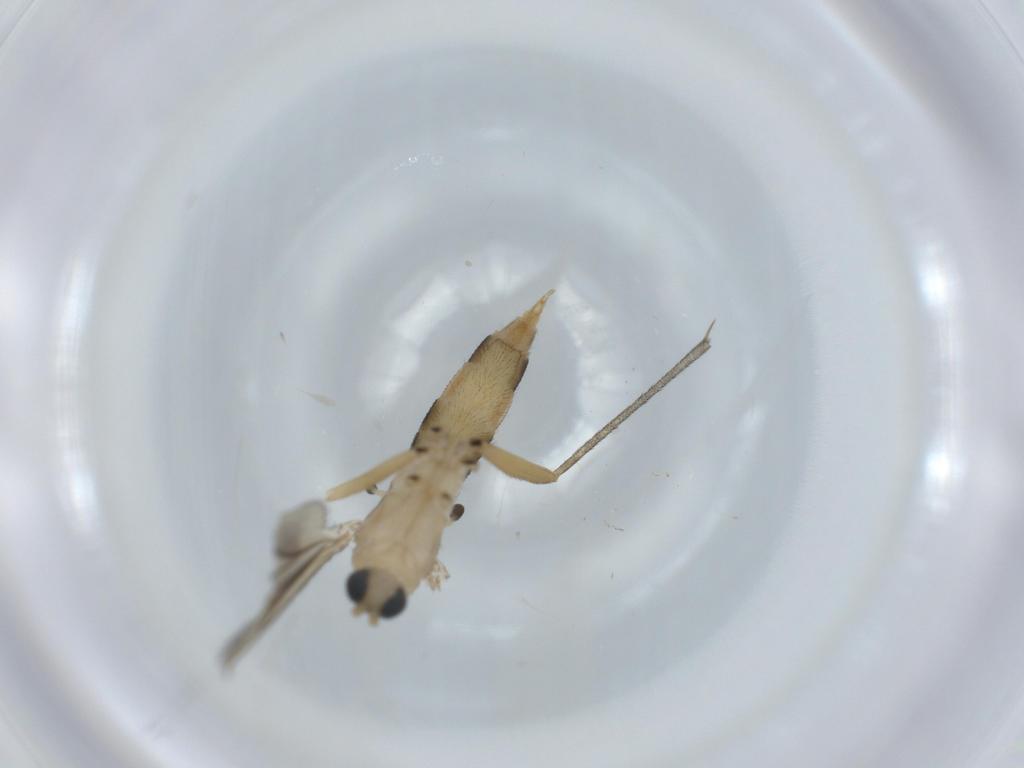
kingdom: Animalia
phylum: Arthropoda
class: Insecta
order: Diptera
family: Sciaridae
